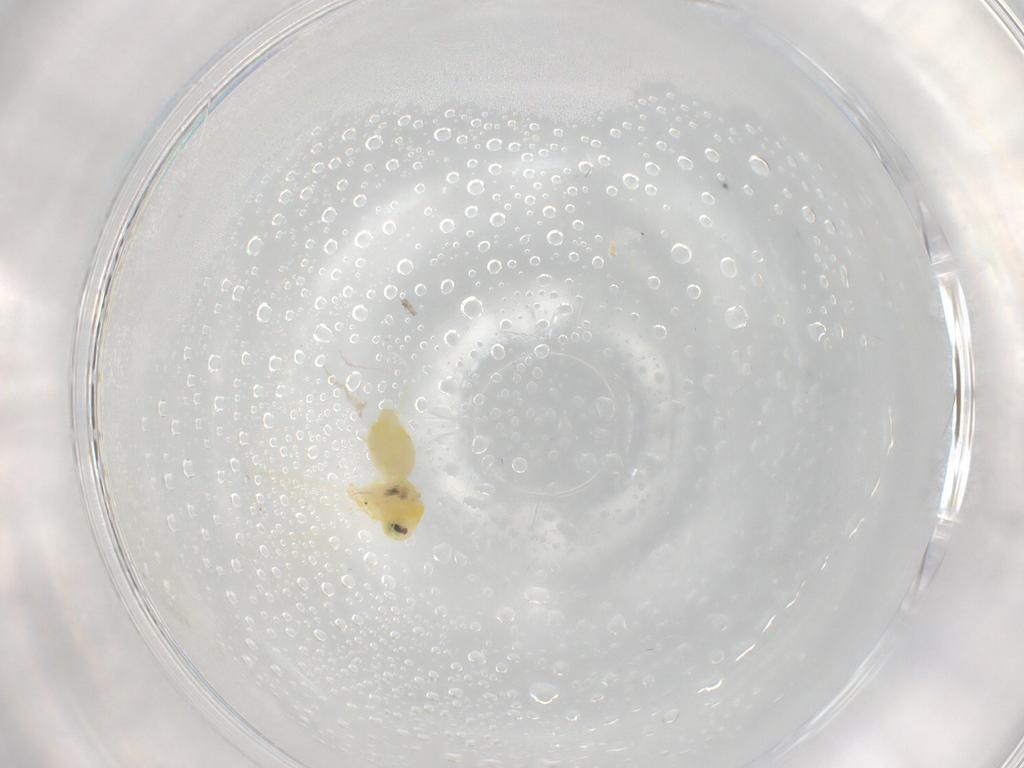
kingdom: Animalia
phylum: Arthropoda
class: Insecta
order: Hemiptera
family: Aleyrodidae
